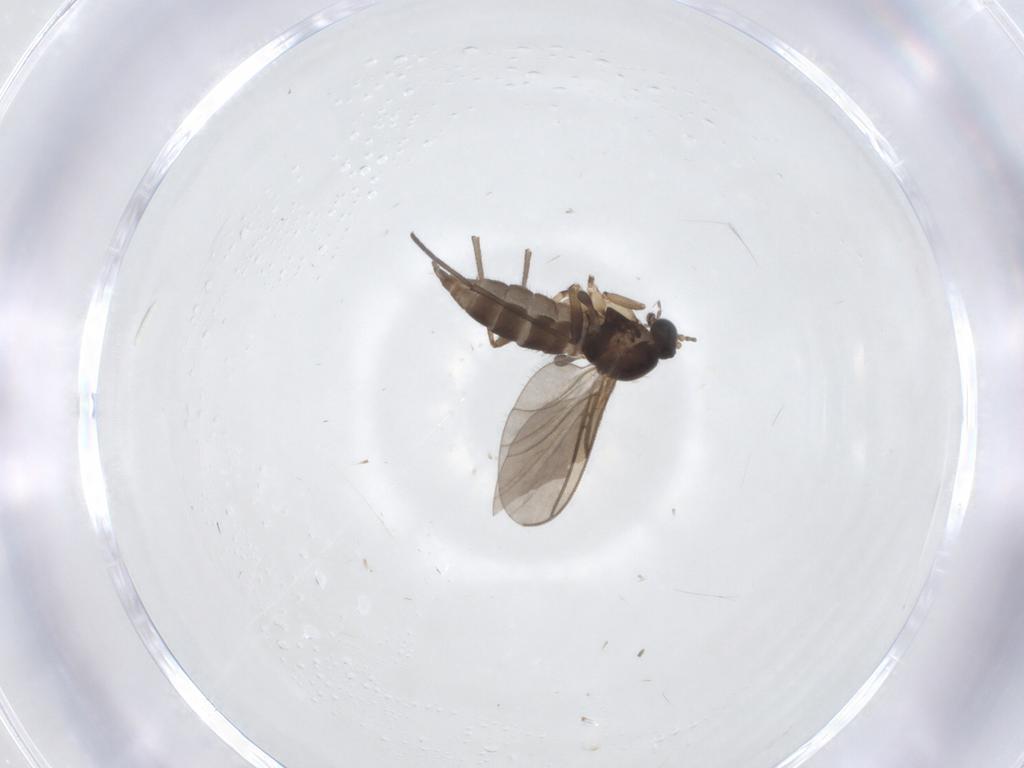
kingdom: Animalia
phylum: Arthropoda
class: Insecta
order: Diptera
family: Sciaridae
